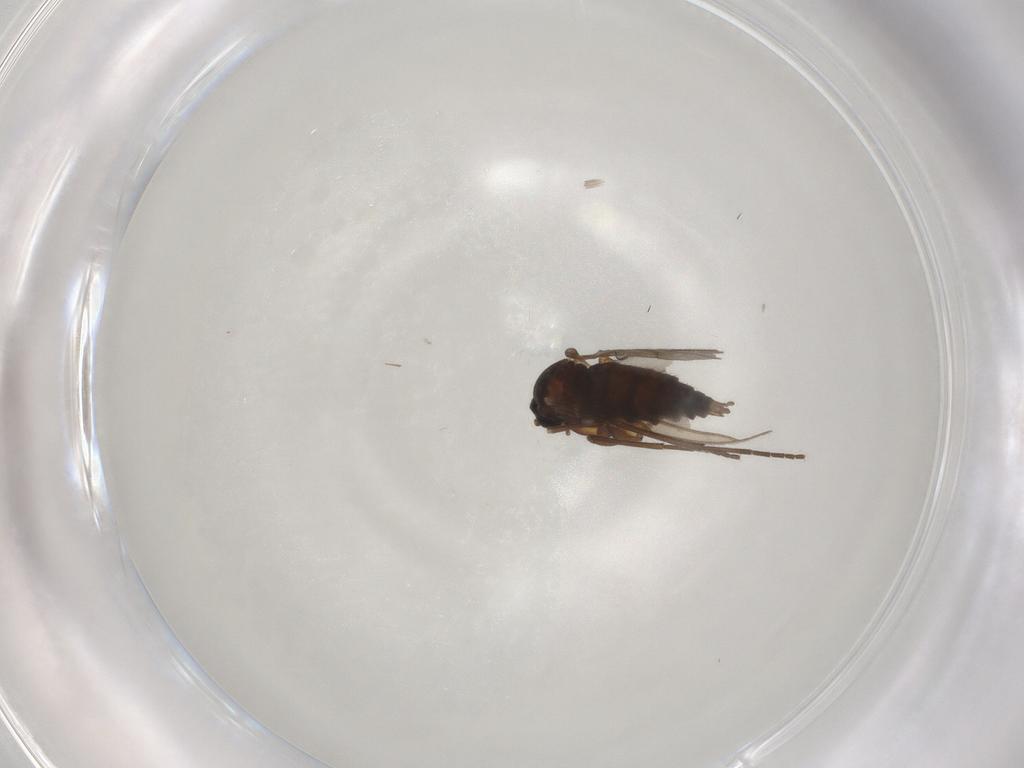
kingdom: Animalia
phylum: Arthropoda
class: Insecta
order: Diptera
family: Sciaridae
